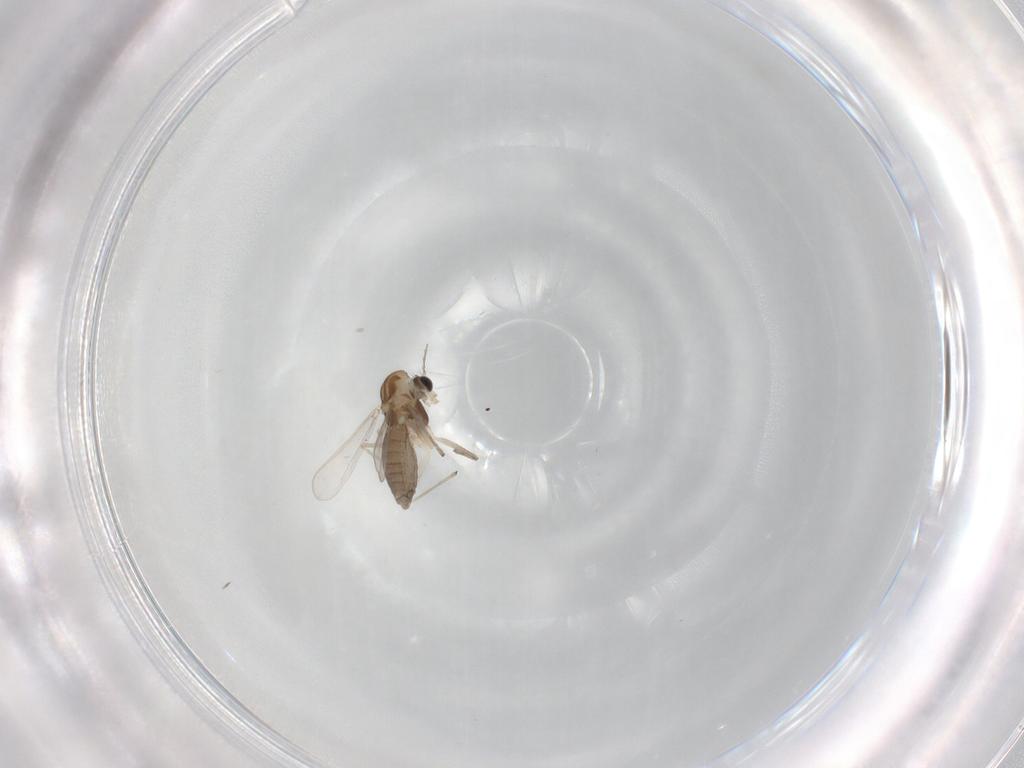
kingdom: Animalia
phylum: Arthropoda
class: Insecta
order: Diptera
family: Chironomidae
